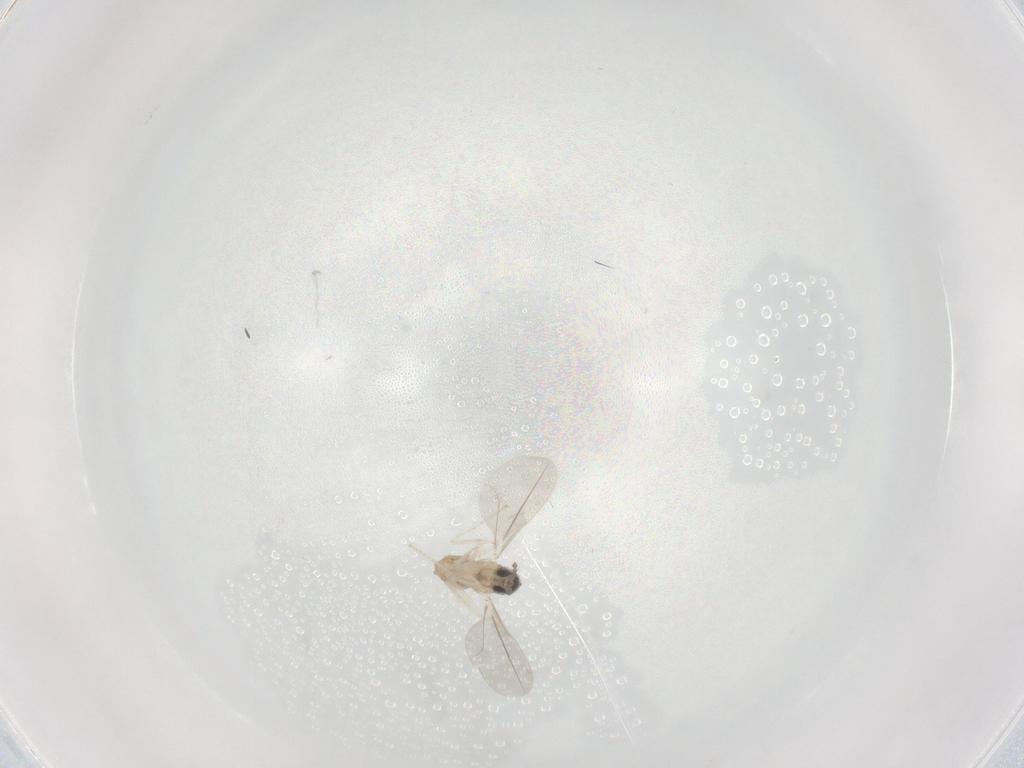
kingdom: Animalia
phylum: Arthropoda
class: Insecta
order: Diptera
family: Cecidomyiidae
